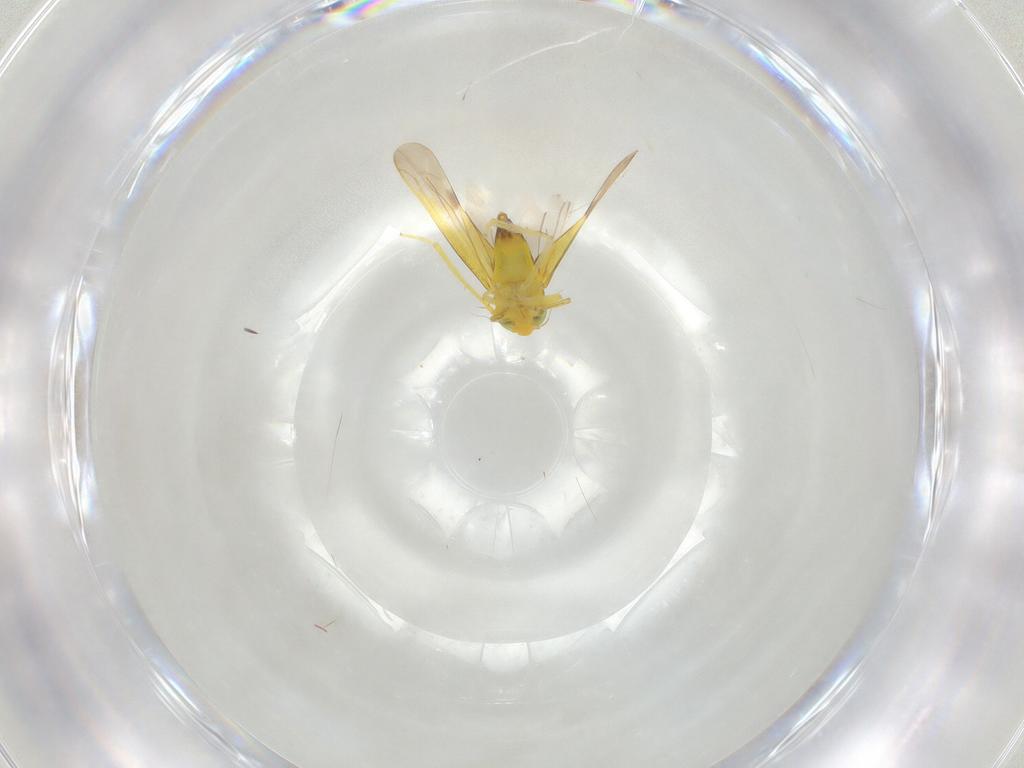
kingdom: Animalia
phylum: Arthropoda
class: Insecta
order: Hemiptera
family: Cicadellidae
